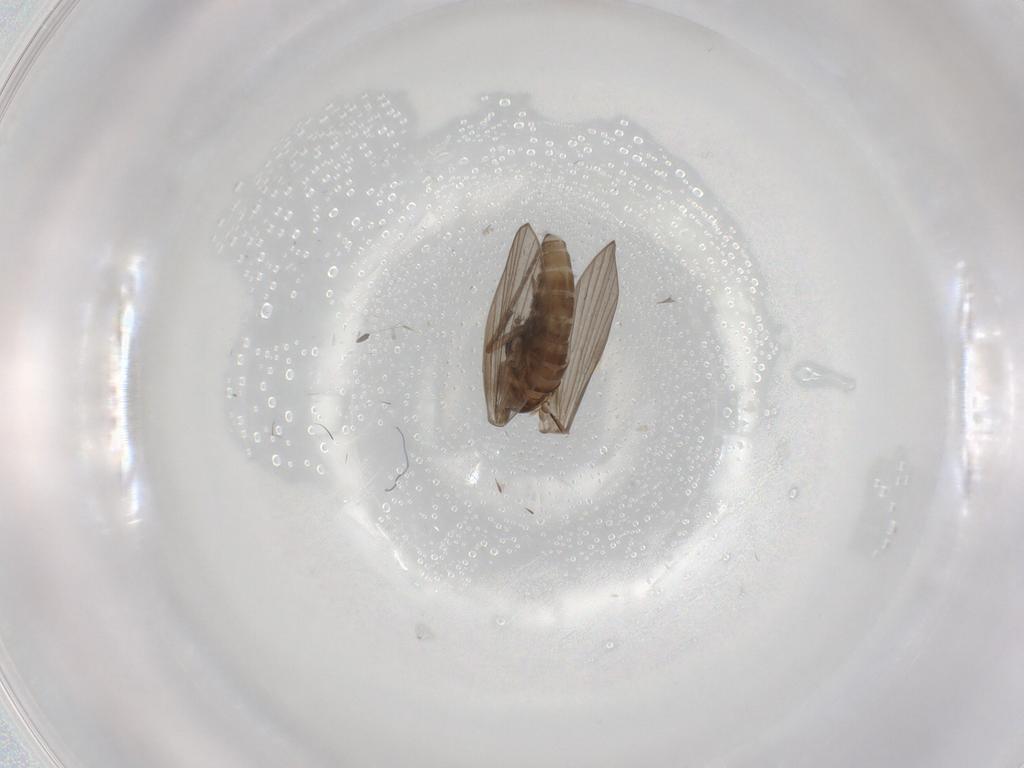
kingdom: Animalia
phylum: Arthropoda
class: Insecta
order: Diptera
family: Psychodidae
